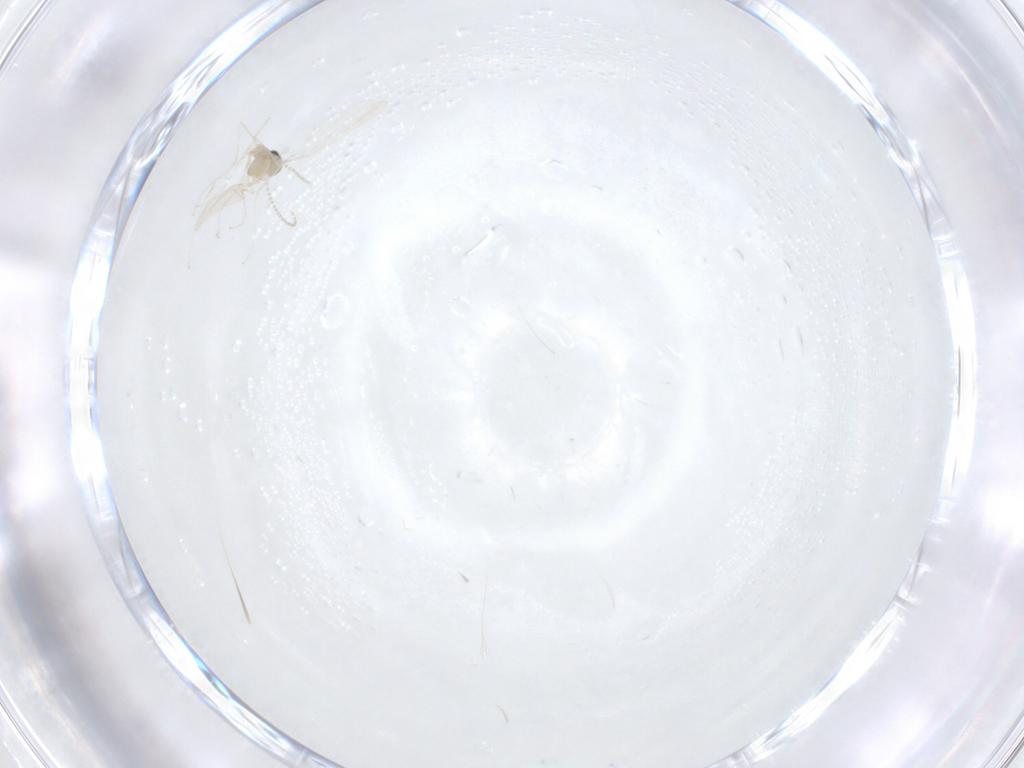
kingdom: Animalia
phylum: Arthropoda
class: Insecta
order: Diptera
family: Cecidomyiidae
